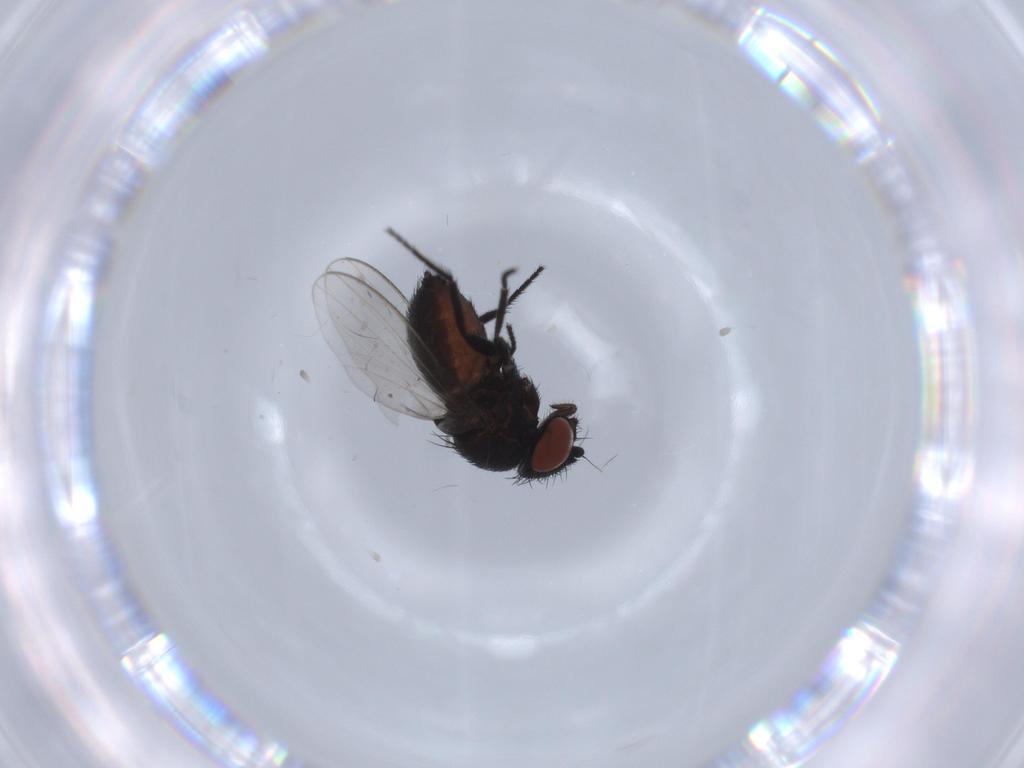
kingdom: Animalia
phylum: Arthropoda
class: Insecta
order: Diptera
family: Milichiidae
